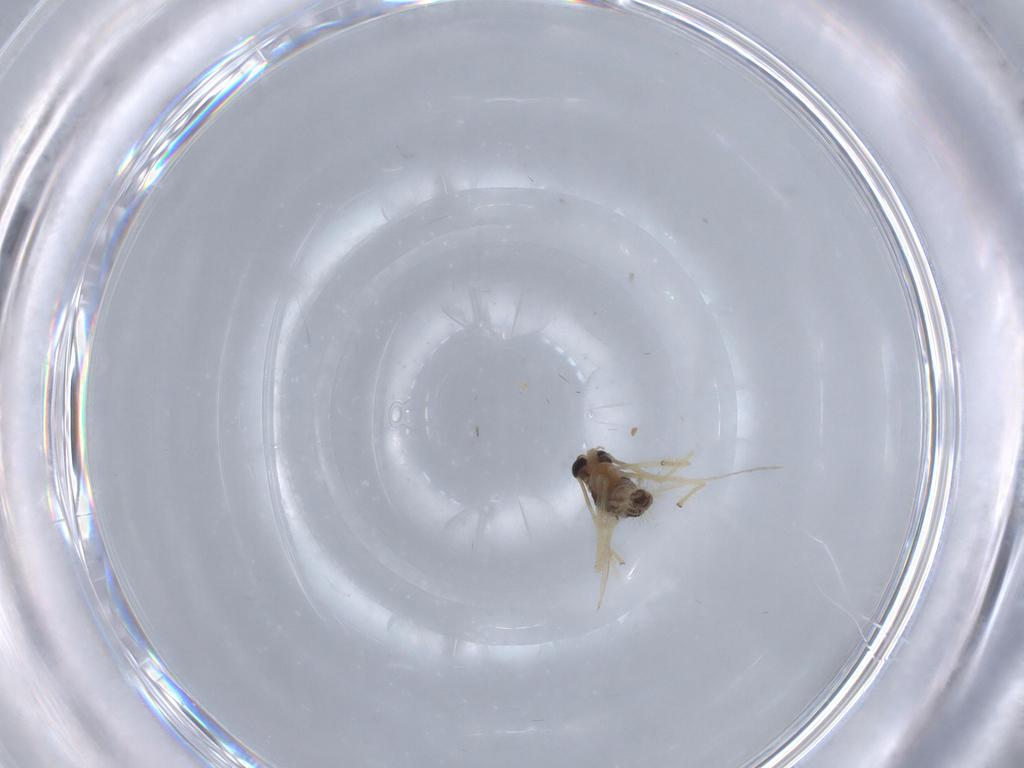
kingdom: Animalia
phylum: Arthropoda
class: Insecta
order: Diptera
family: Chironomidae
